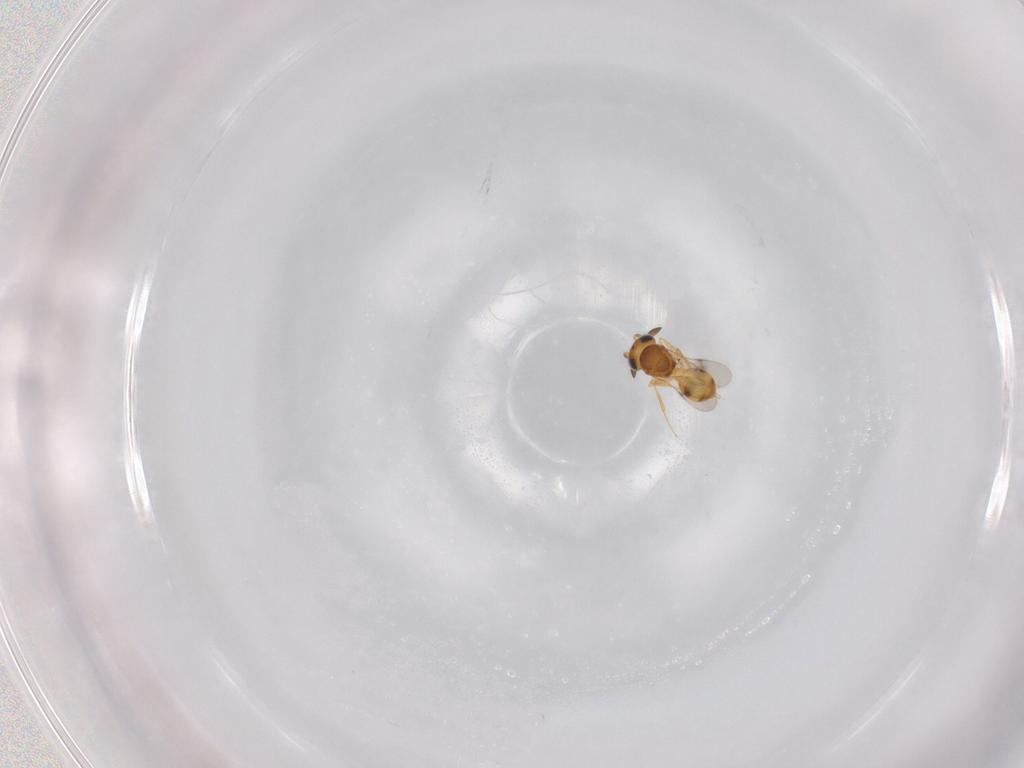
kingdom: Animalia
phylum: Arthropoda
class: Insecta
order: Hymenoptera
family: Scelionidae
